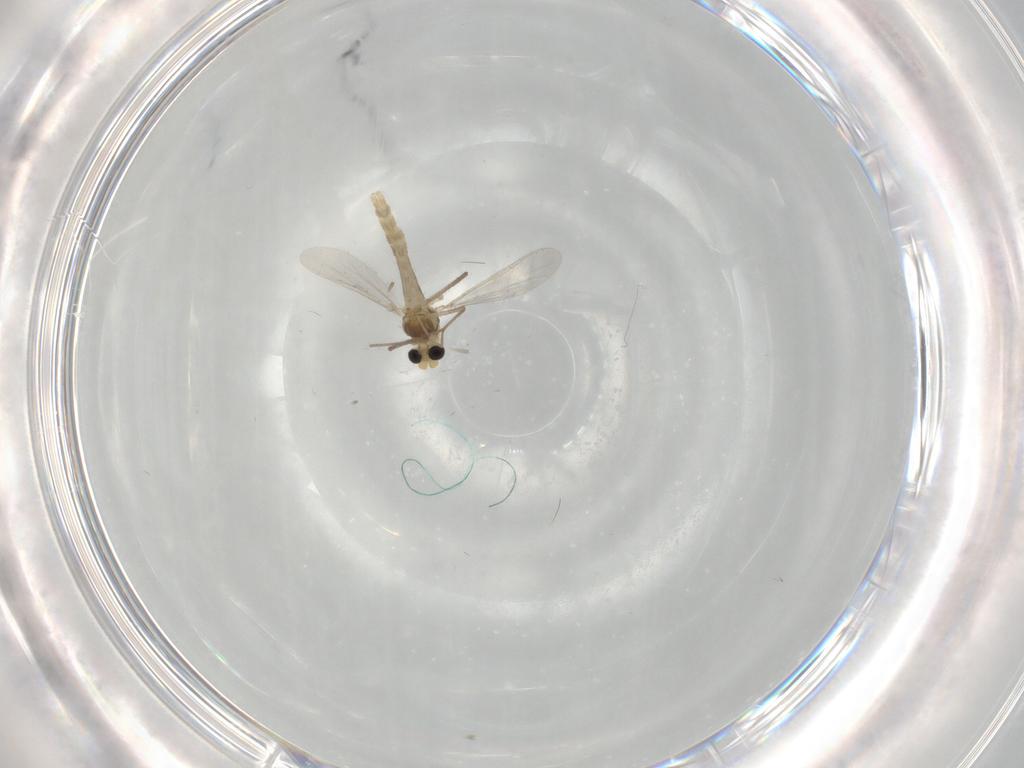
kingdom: Animalia
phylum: Arthropoda
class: Insecta
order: Diptera
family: Chironomidae
